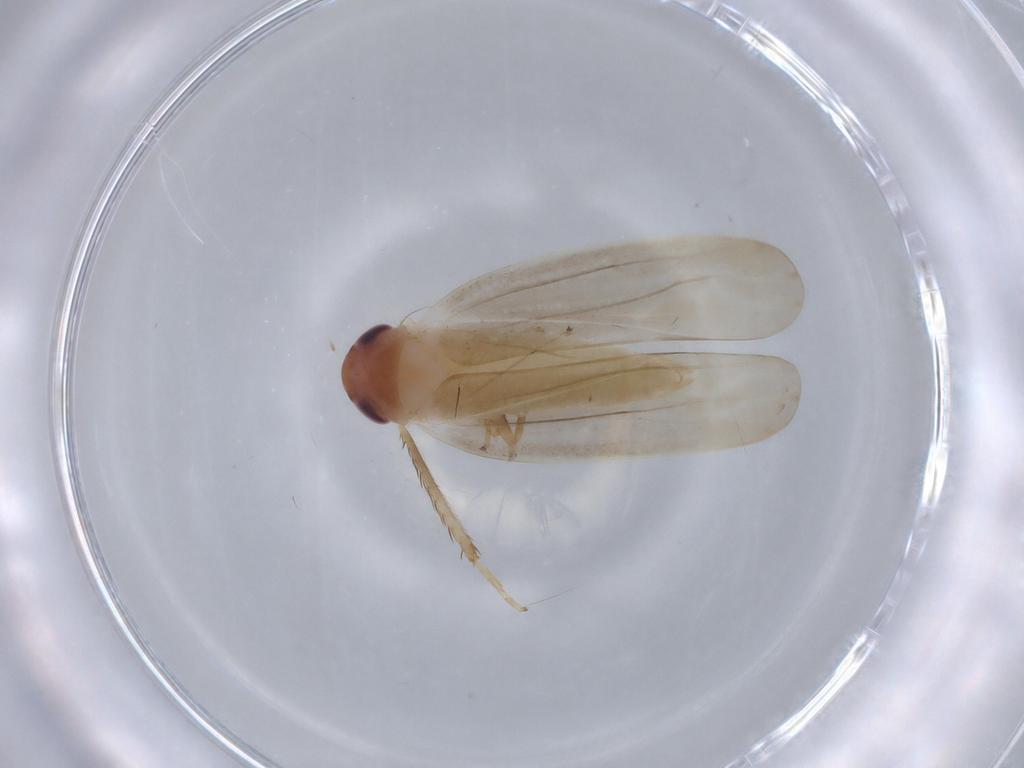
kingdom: Animalia
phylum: Arthropoda
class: Insecta
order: Hemiptera
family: Cicadellidae
